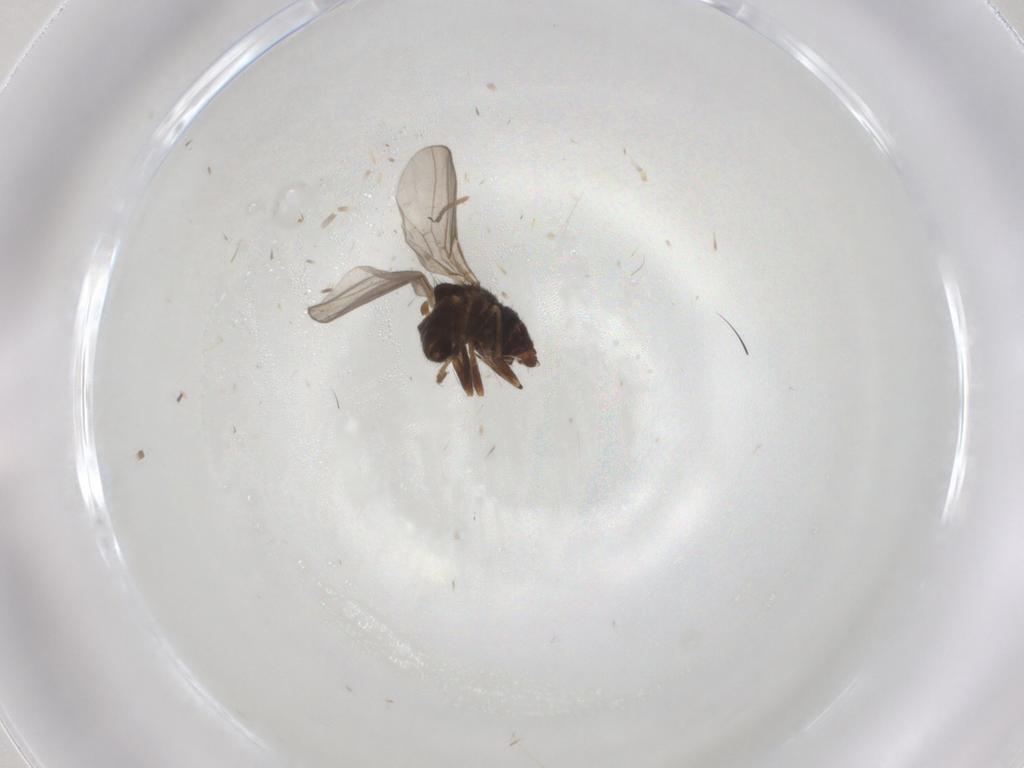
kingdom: Animalia
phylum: Arthropoda
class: Insecta
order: Diptera
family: Chloropidae
